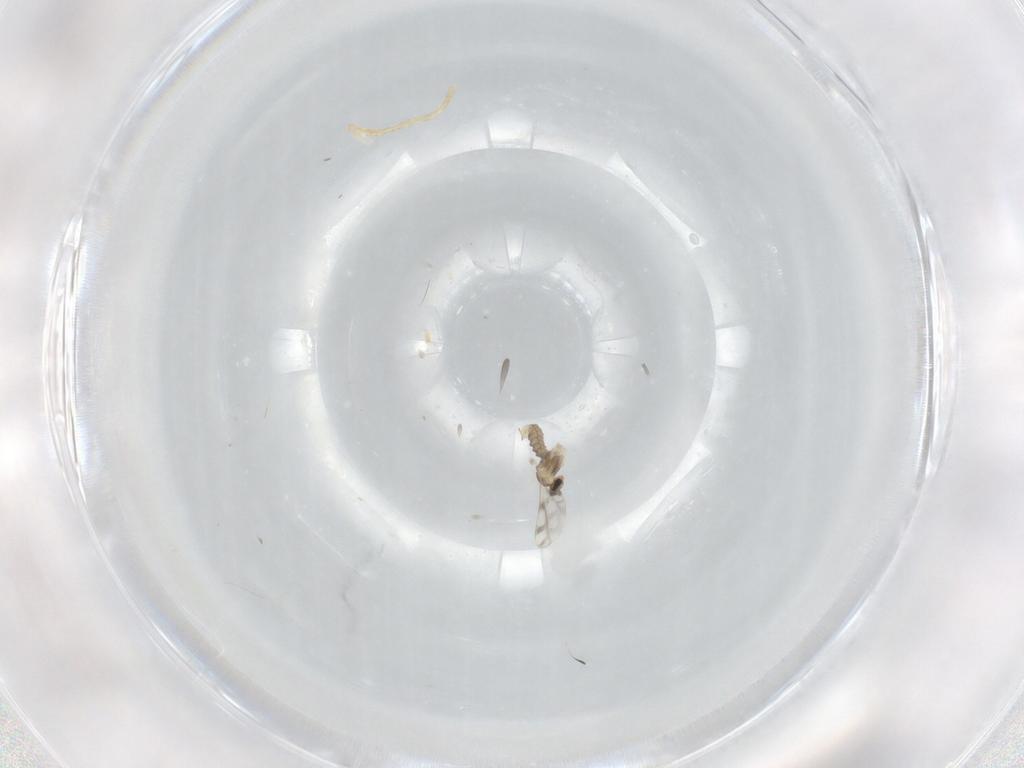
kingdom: Animalia
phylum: Arthropoda
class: Insecta
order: Diptera
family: Cecidomyiidae
